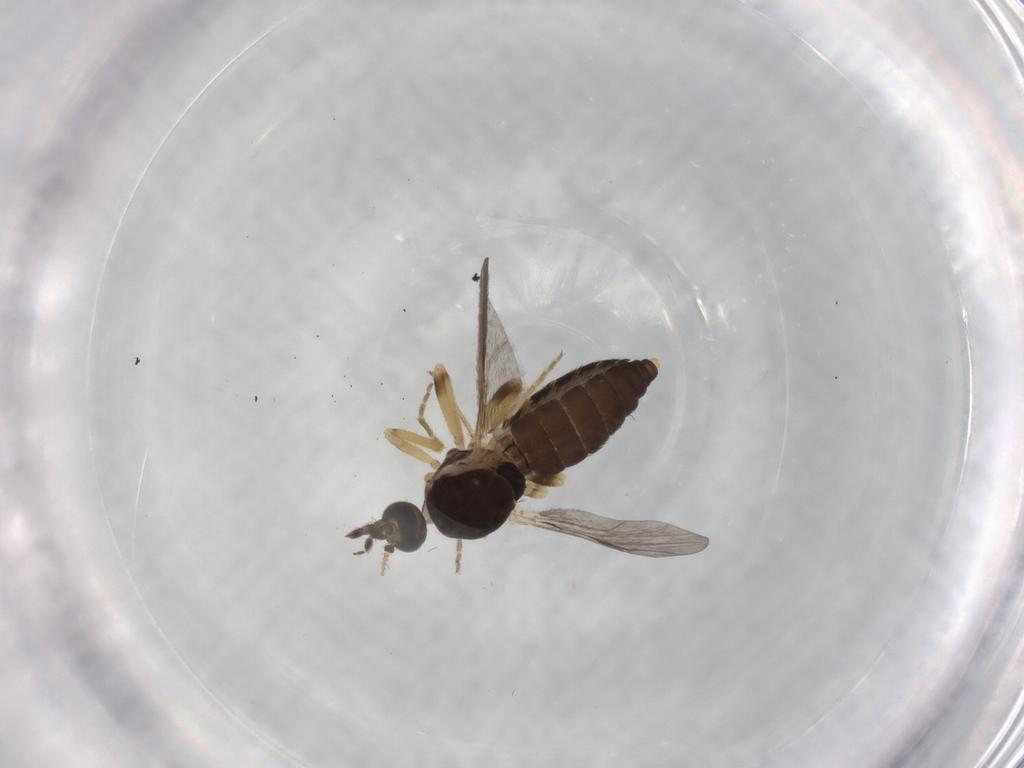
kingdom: Animalia
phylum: Arthropoda
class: Insecta
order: Diptera
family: Ceratopogonidae
